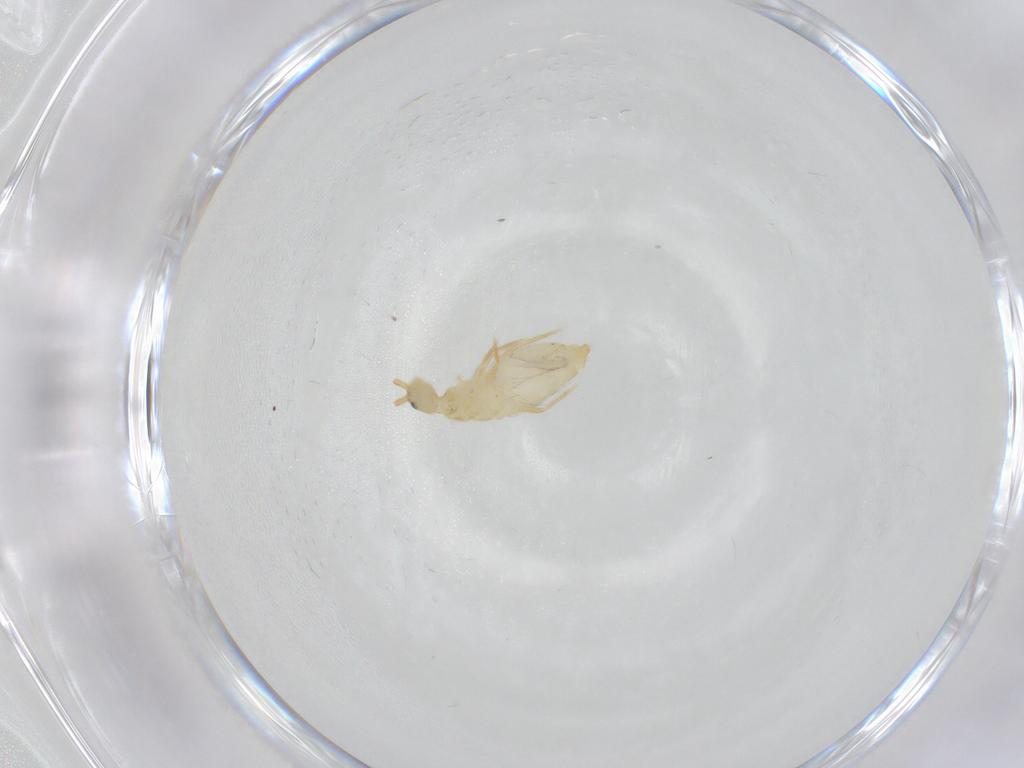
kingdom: Animalia
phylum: Arthropoda
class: Collembola
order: Entomobryomorpha
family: Entomobryidae
